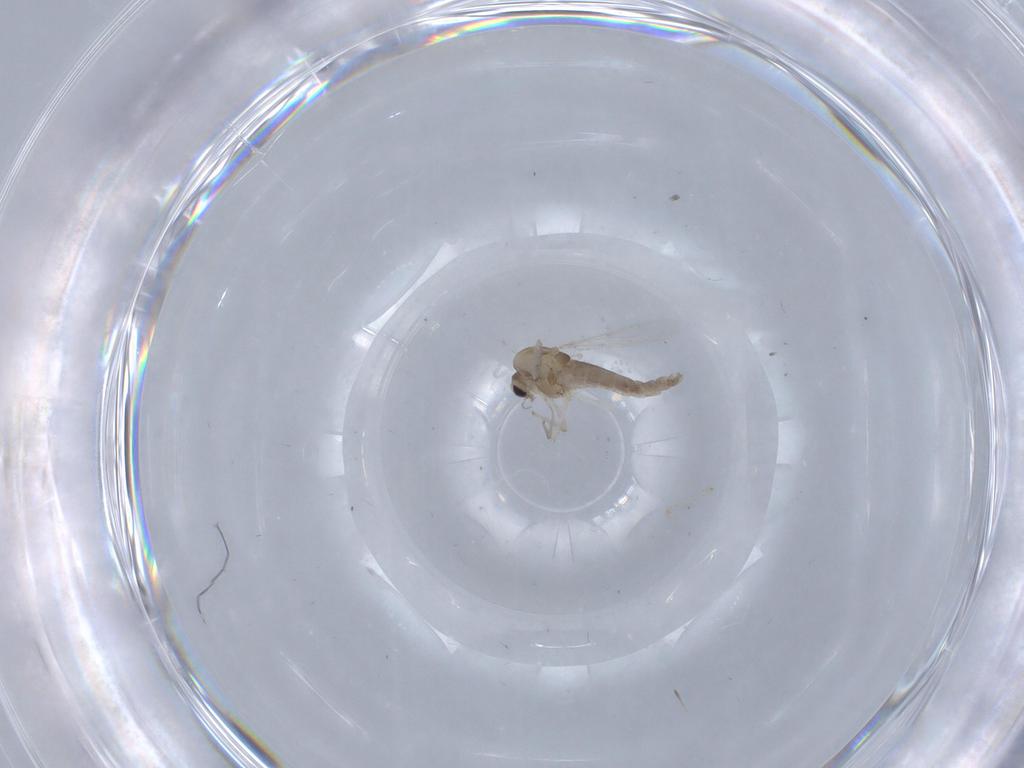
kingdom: Animalia
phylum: Arthropoda
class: Insecta
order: Diptera
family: Chironomidae
